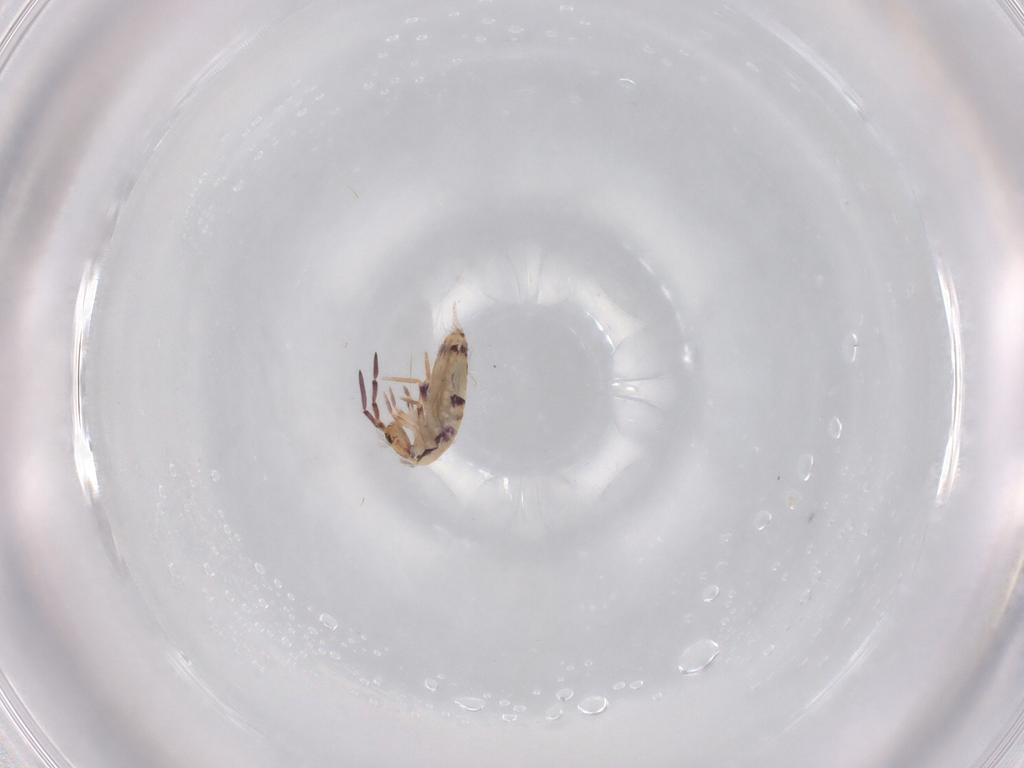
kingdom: Animalia
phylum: Arthropoda
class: Collembola
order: Entomobryomorpha
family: Entomobryidae
